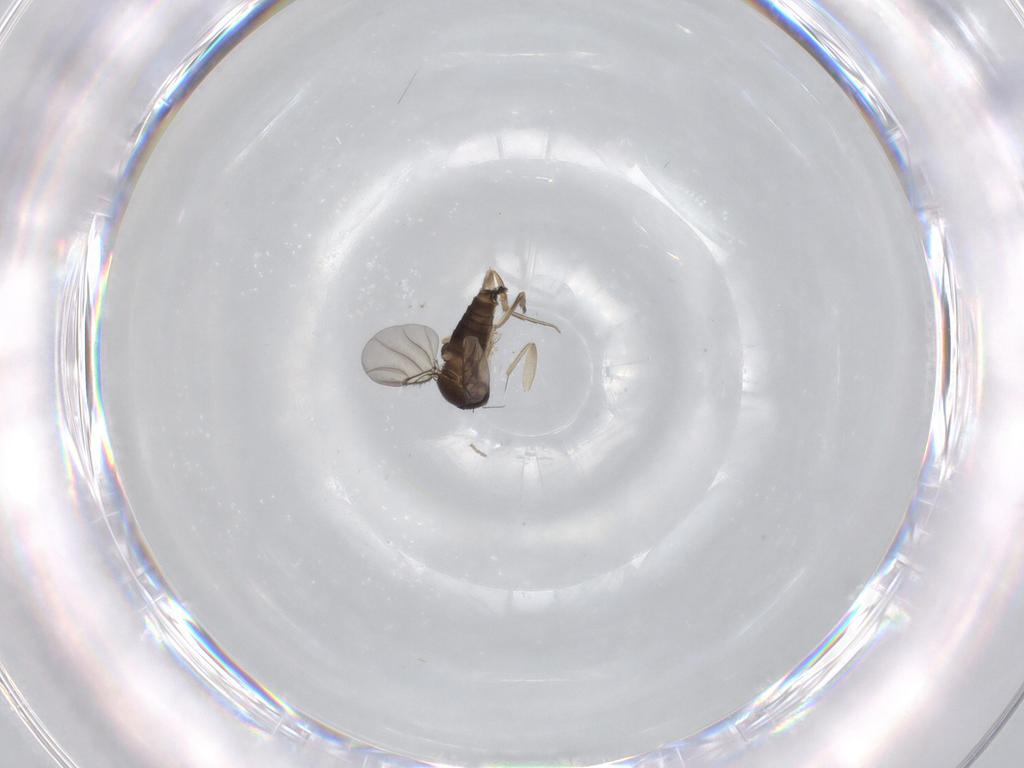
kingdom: Animalia
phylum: Arthropoda
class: Insecta
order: Diptera
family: Phoridae
